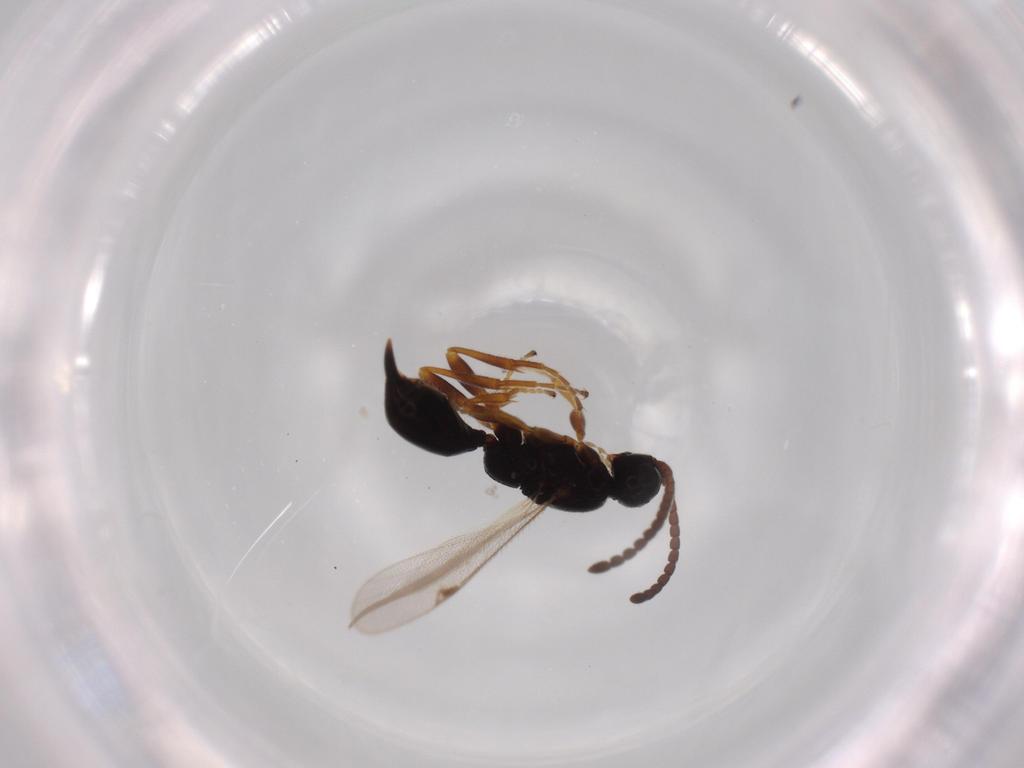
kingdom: Animalia
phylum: Arthropoda
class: Insecta
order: Hymenoptera
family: Proctotrupidae
